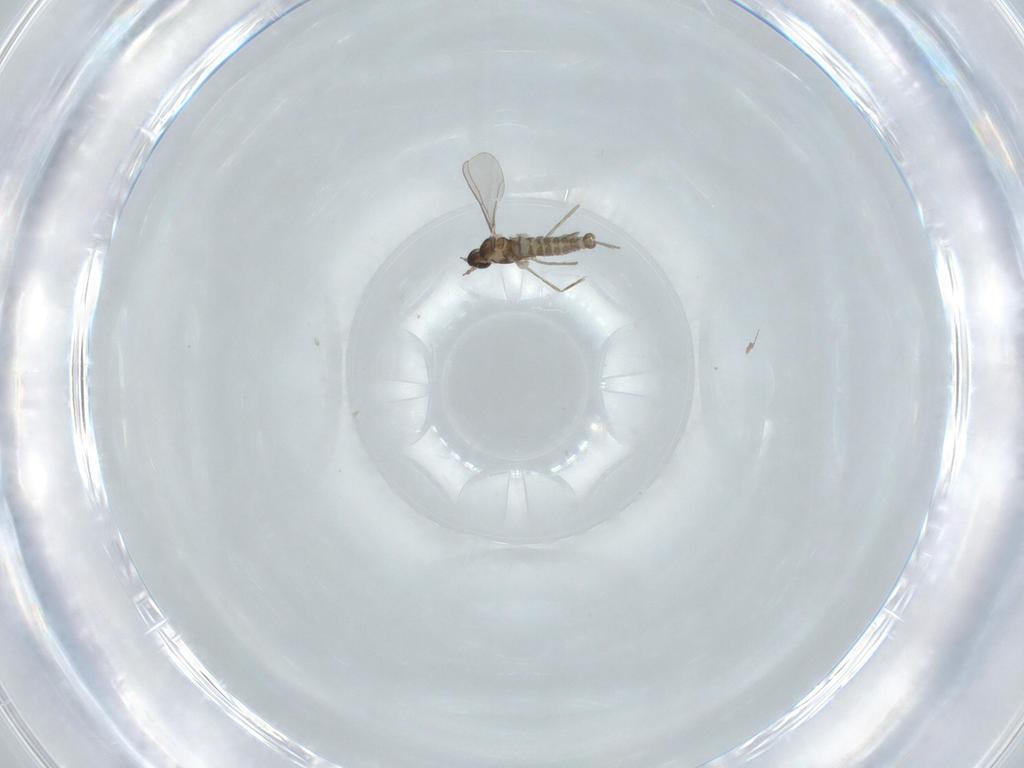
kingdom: Animalia
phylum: Arthropoda
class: Insecta
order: Diptera
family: Cecidomyiidae
